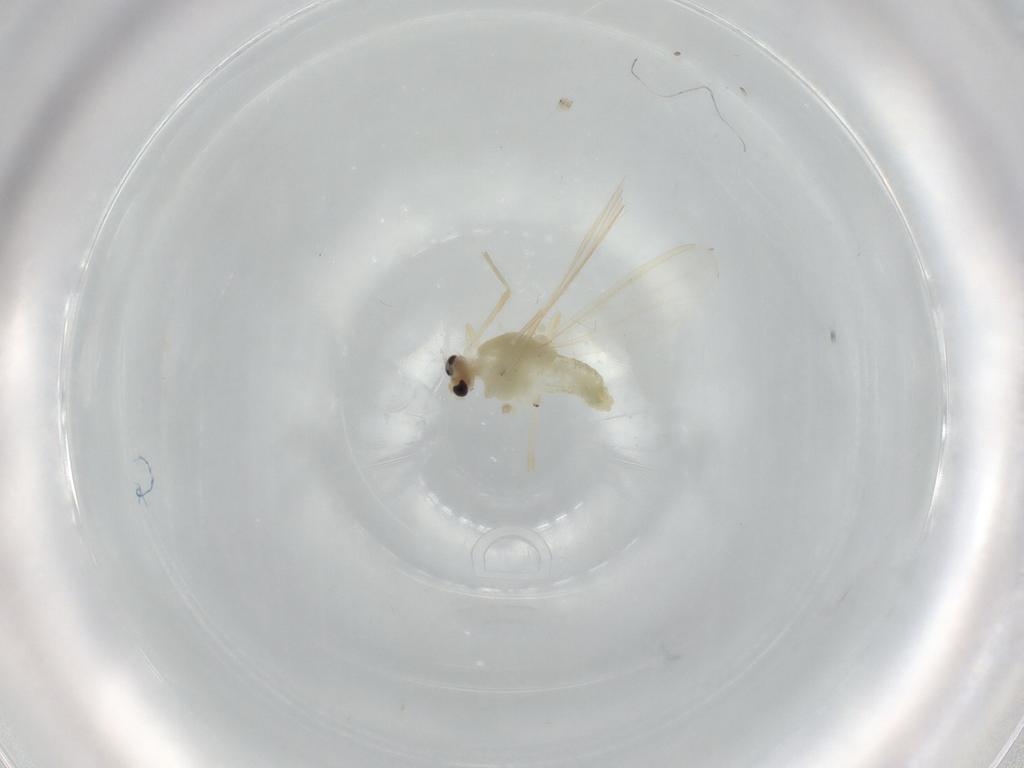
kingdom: Animalia
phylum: Arthropoda
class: Insecta
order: Diptera
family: Chironomidae
